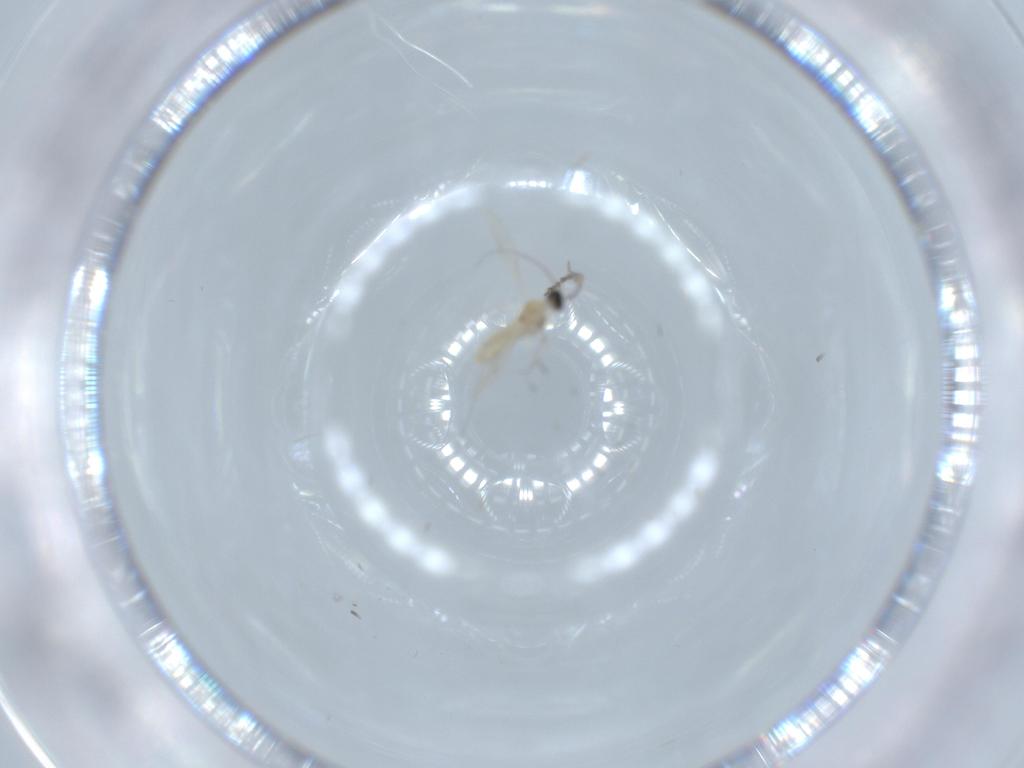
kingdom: Animalia
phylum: Arthropoda
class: Insecta
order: Diptera
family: Cecidomyiidae
